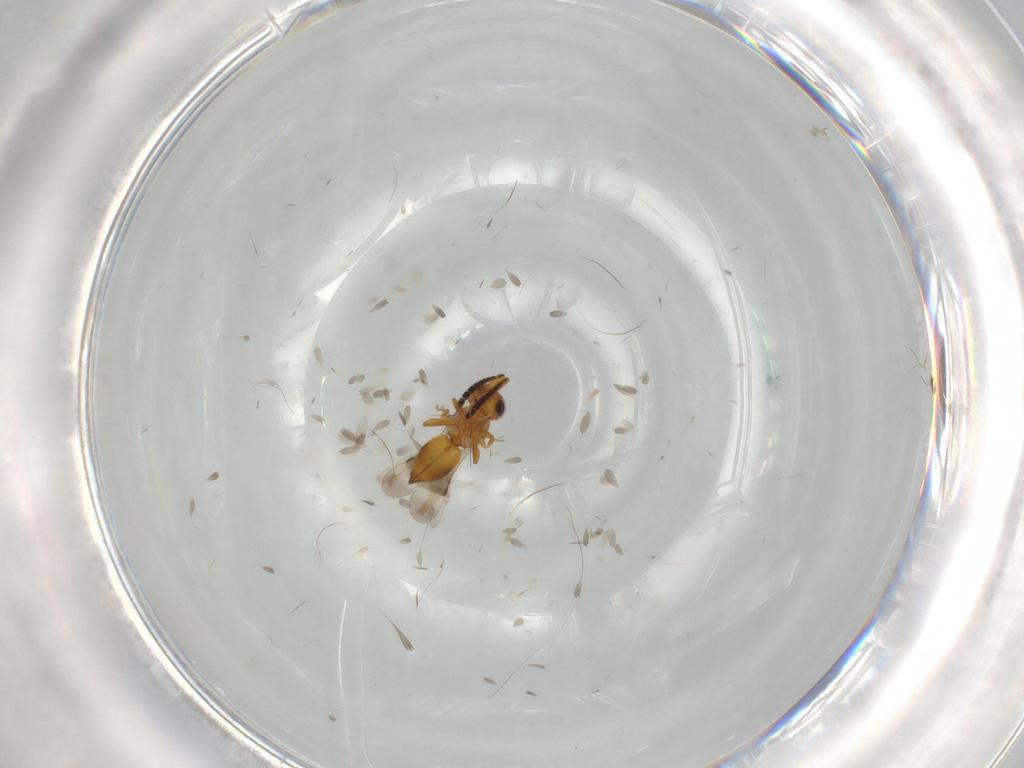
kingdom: Animalia
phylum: Arthropoda
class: Insecta
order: Hymenoptera
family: Ceraphronidae
